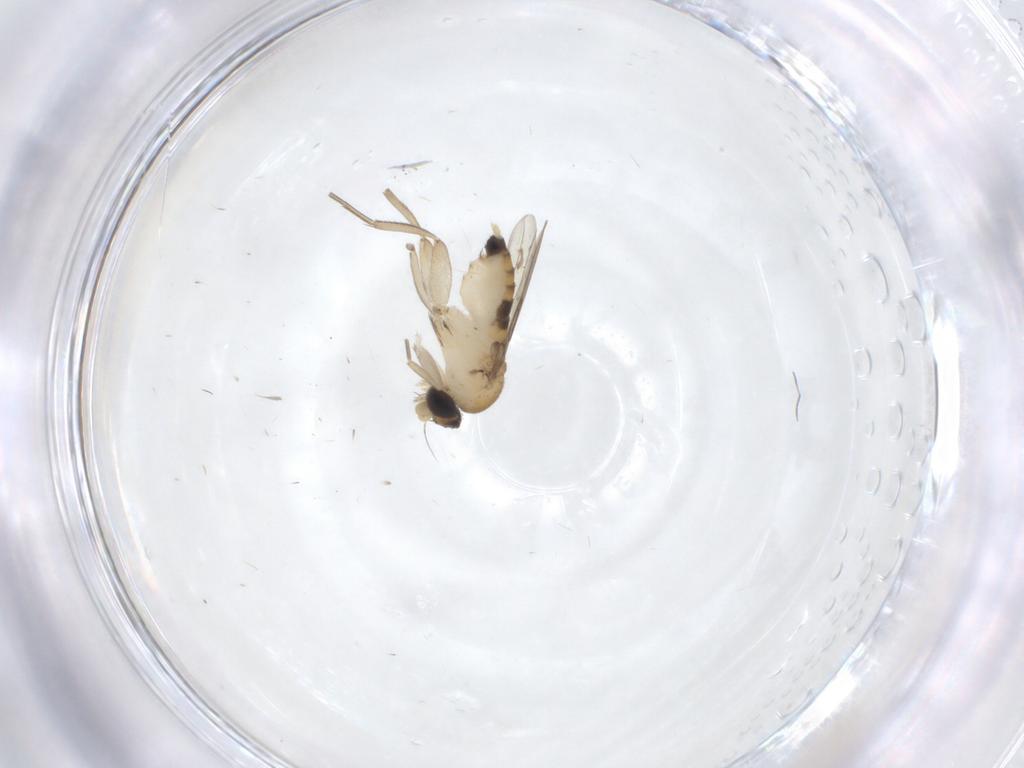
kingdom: Animalia
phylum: Arthropoda
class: Insecta
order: Diptera
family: Phoridae
